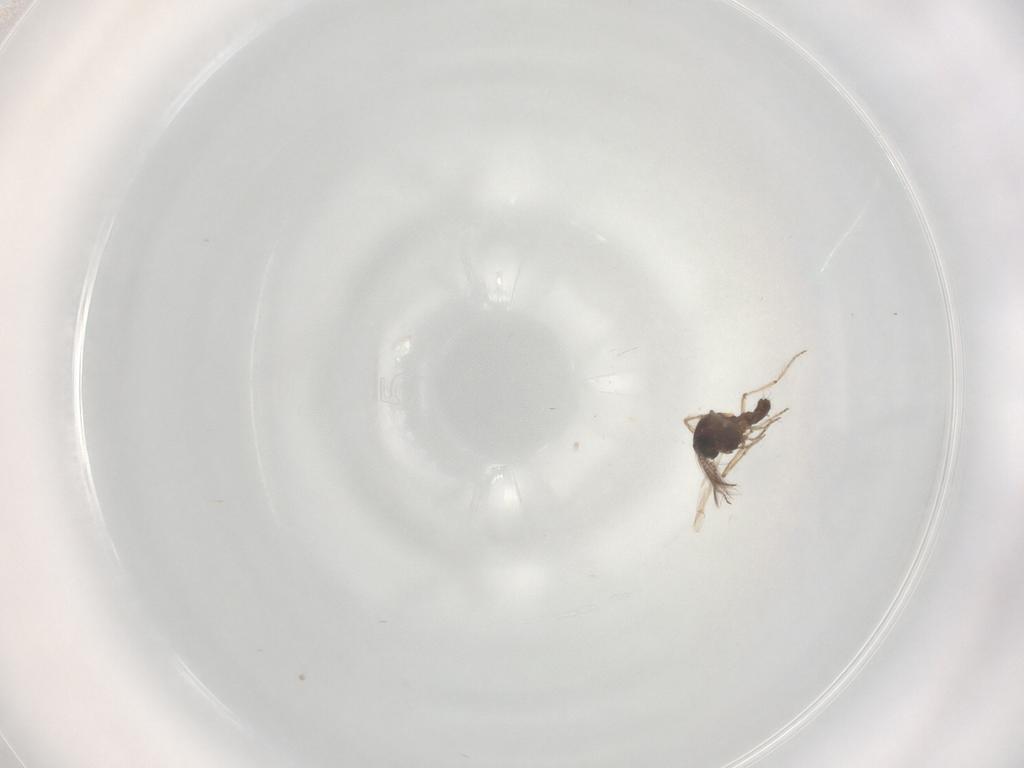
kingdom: Animalia
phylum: Arthropoda
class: Insecta
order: Diptera
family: Ceratopogonidae
